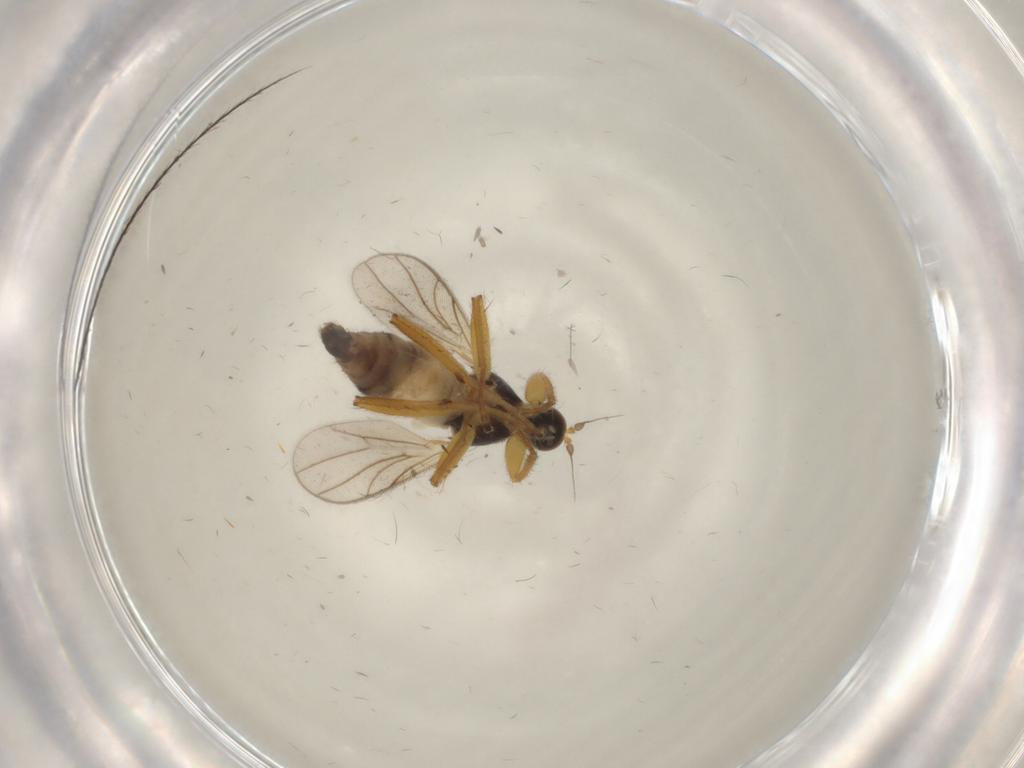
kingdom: Animalia
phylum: Arthropoda
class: Insecta
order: Diptera
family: Hybotidae
